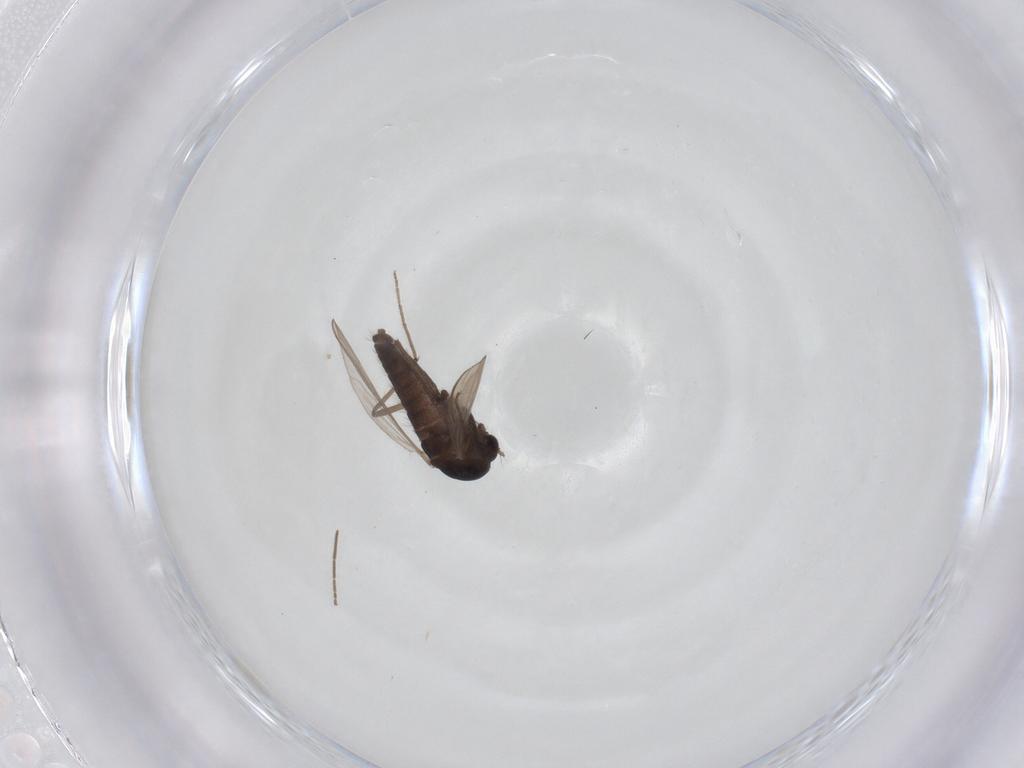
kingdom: Animalia
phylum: Arthropoda
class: Insecta
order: Diptera
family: Chironomidae
